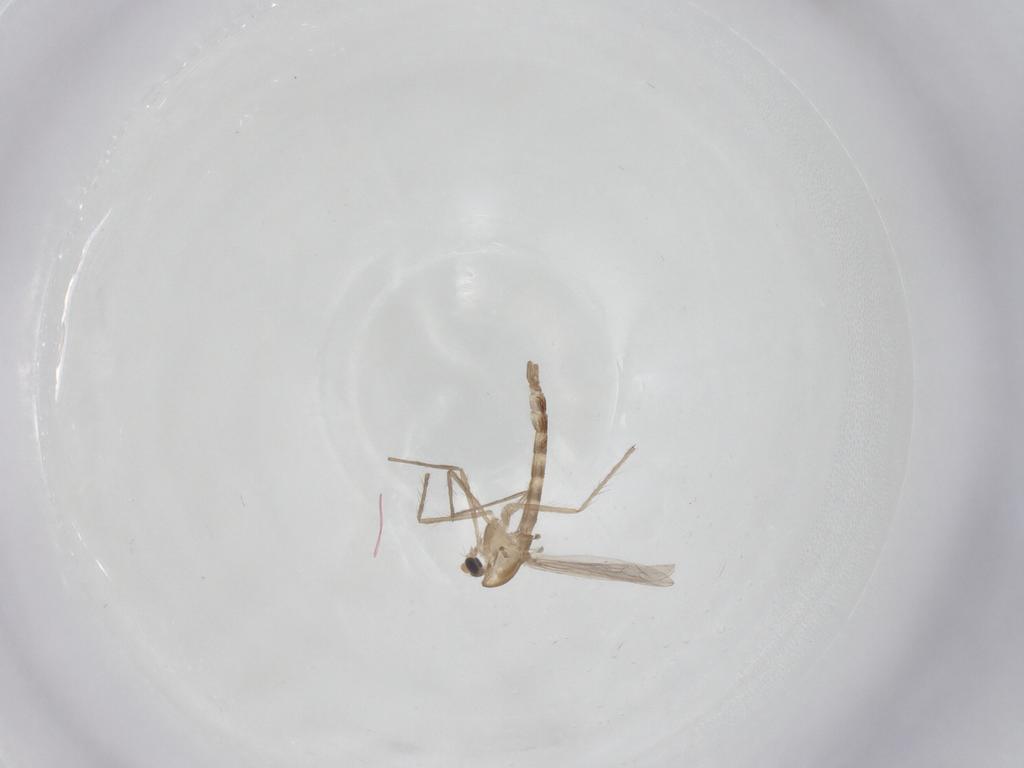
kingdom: Animalia
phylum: Arthropoda
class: Insecta
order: Diptera
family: Chironomidae
